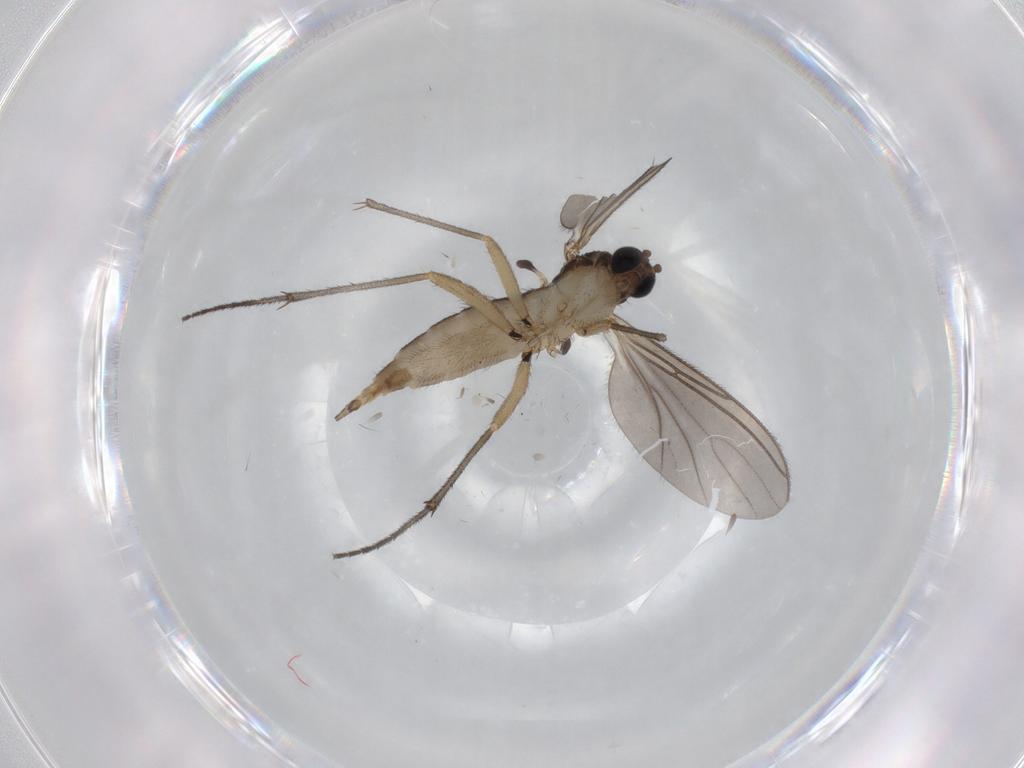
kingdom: Animalia
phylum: Arthropoda
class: Insecta
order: Diptera
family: Sciaridae
